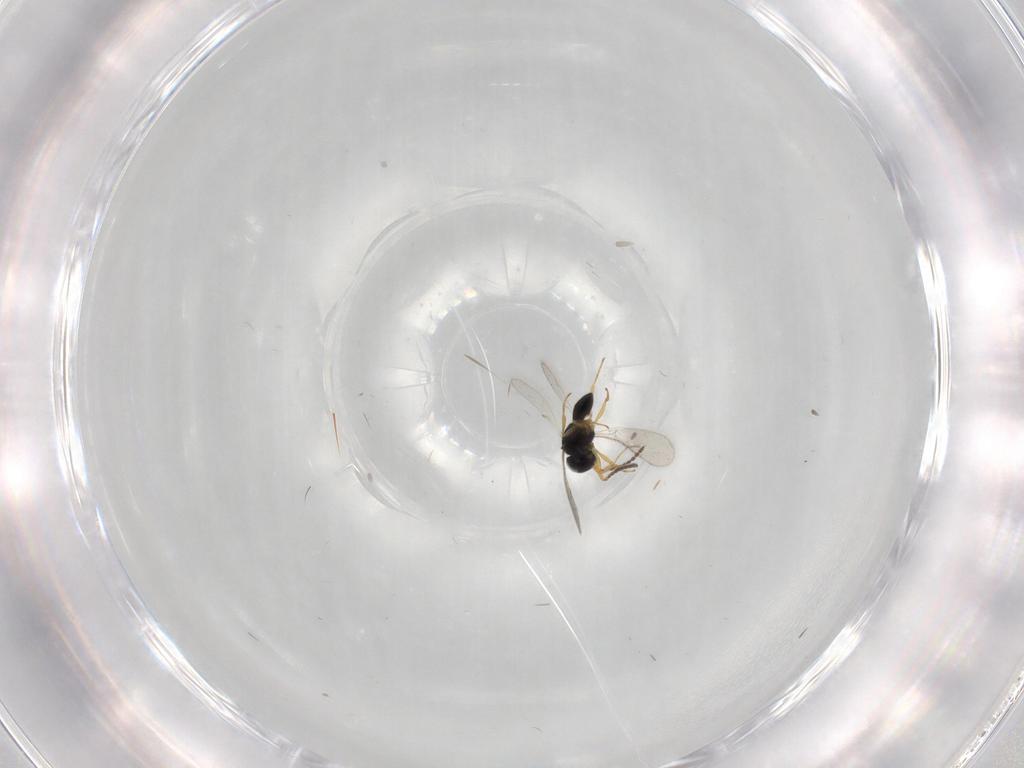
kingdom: Animalia
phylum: Arthropoda
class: Insecta
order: Hymenoptera
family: Scelionidae
